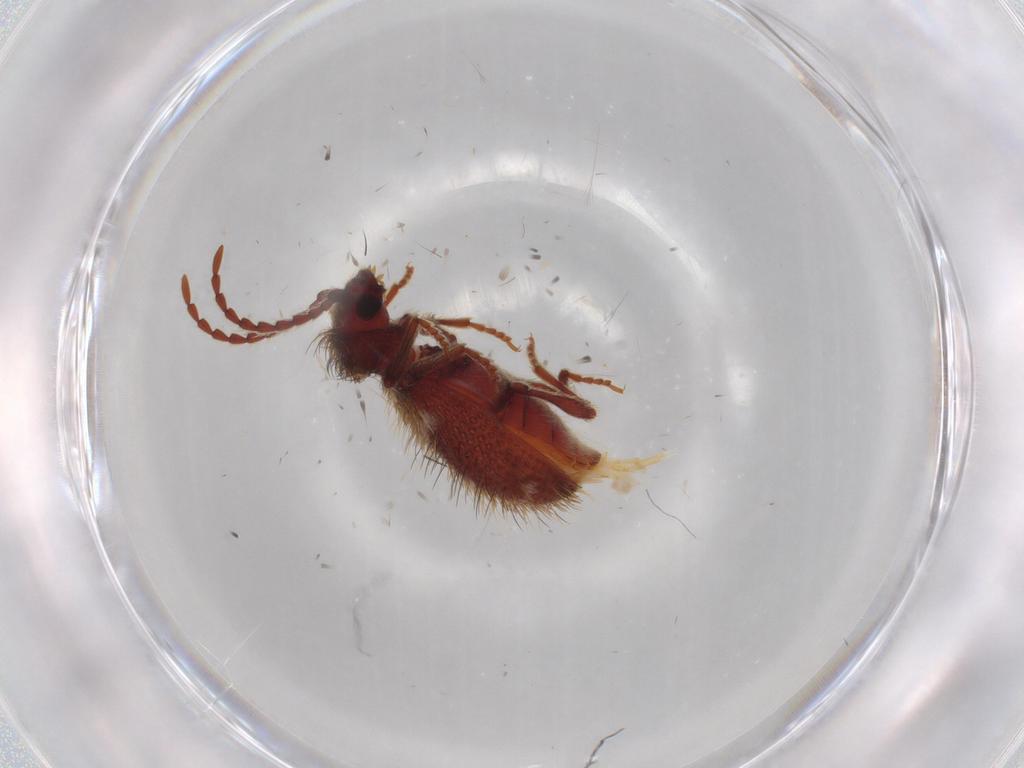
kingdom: Animalia
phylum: Arthropoda
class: Insecta
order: Coleoptera
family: Ptinidae
